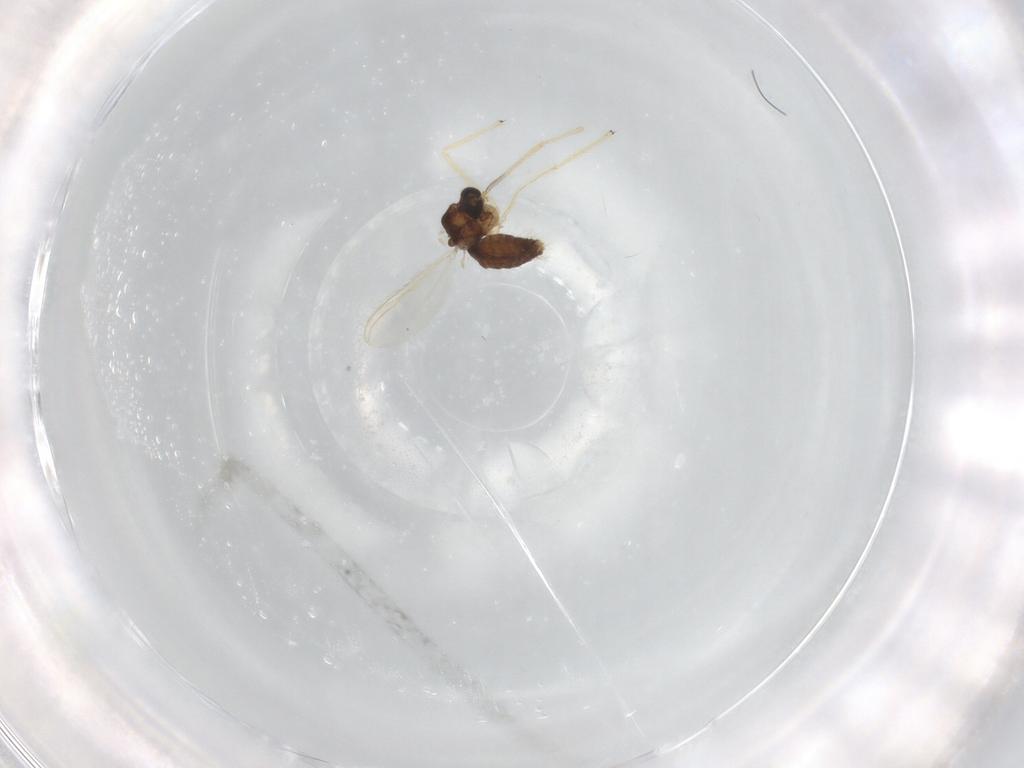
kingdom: Animalia
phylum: Arthropoda
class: Insecta
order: Diptera
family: Chironomidae
